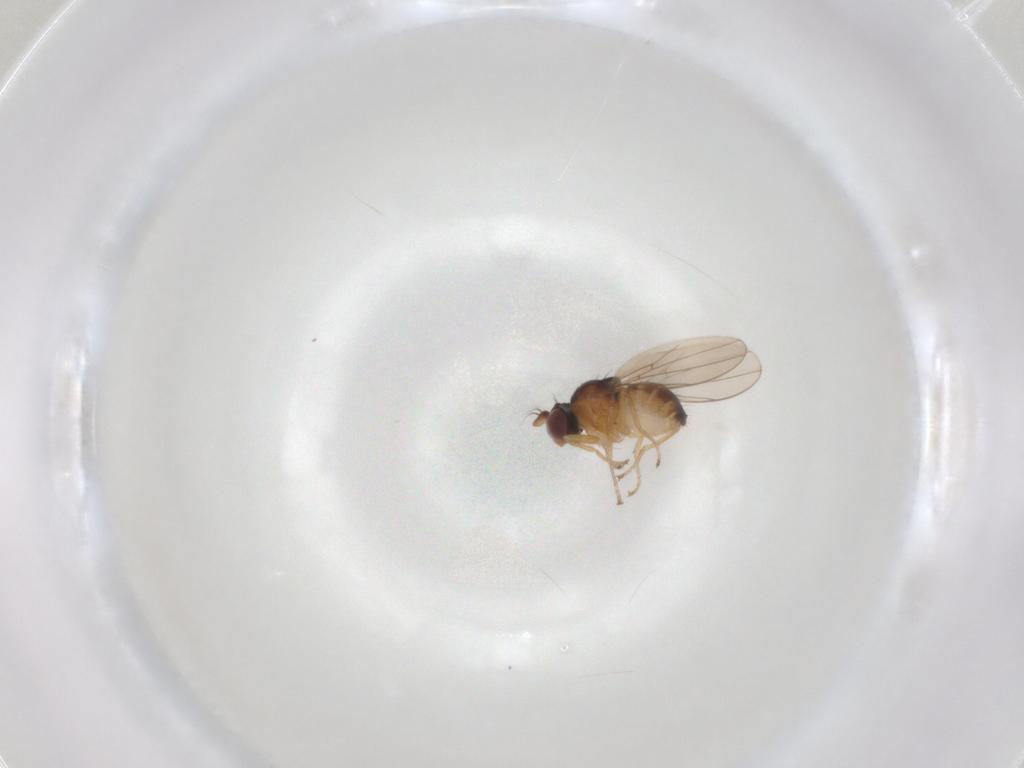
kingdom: Animalia
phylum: Arthropoda
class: Insecta
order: Diptera
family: Ephydridae
